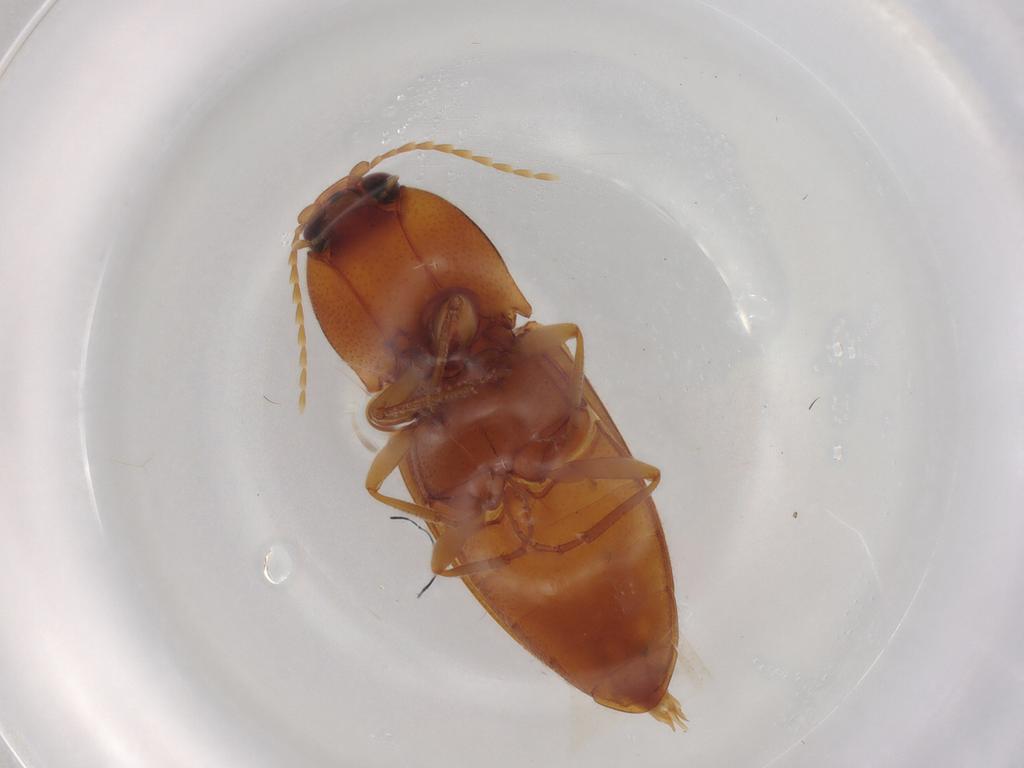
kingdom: Animalia
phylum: Arthropoda
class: Insecta
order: Coleoptera
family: Elateridae
